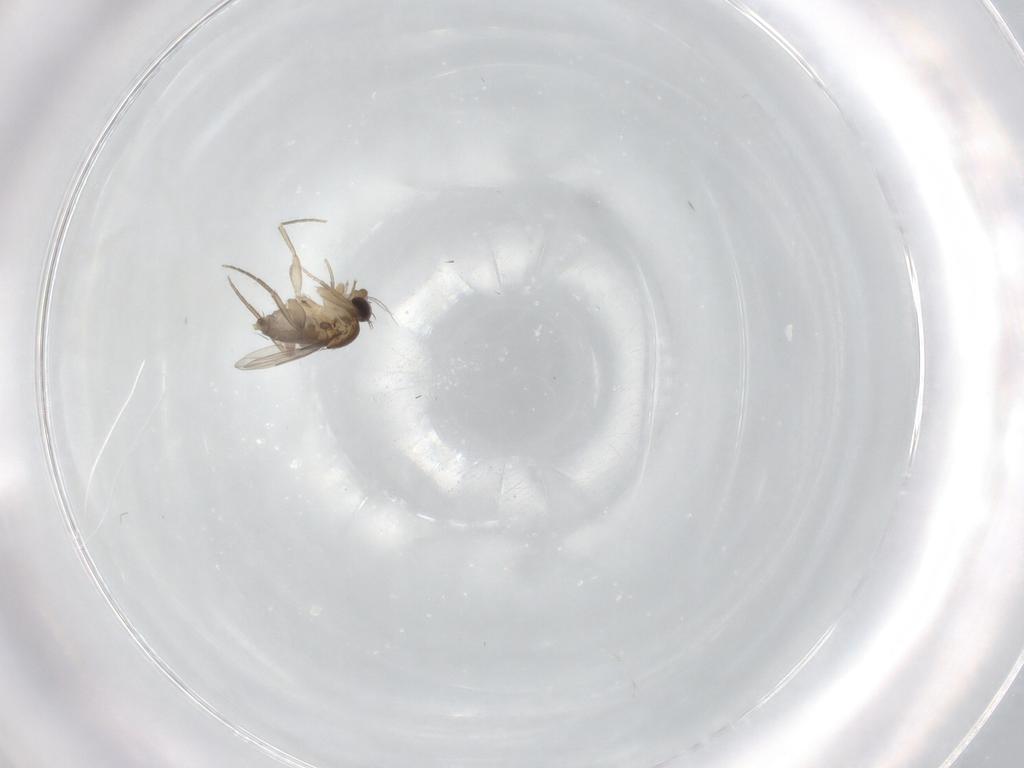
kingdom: Animalia
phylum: Arthropoda
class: Insecta
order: Diptera
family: Phoridae
